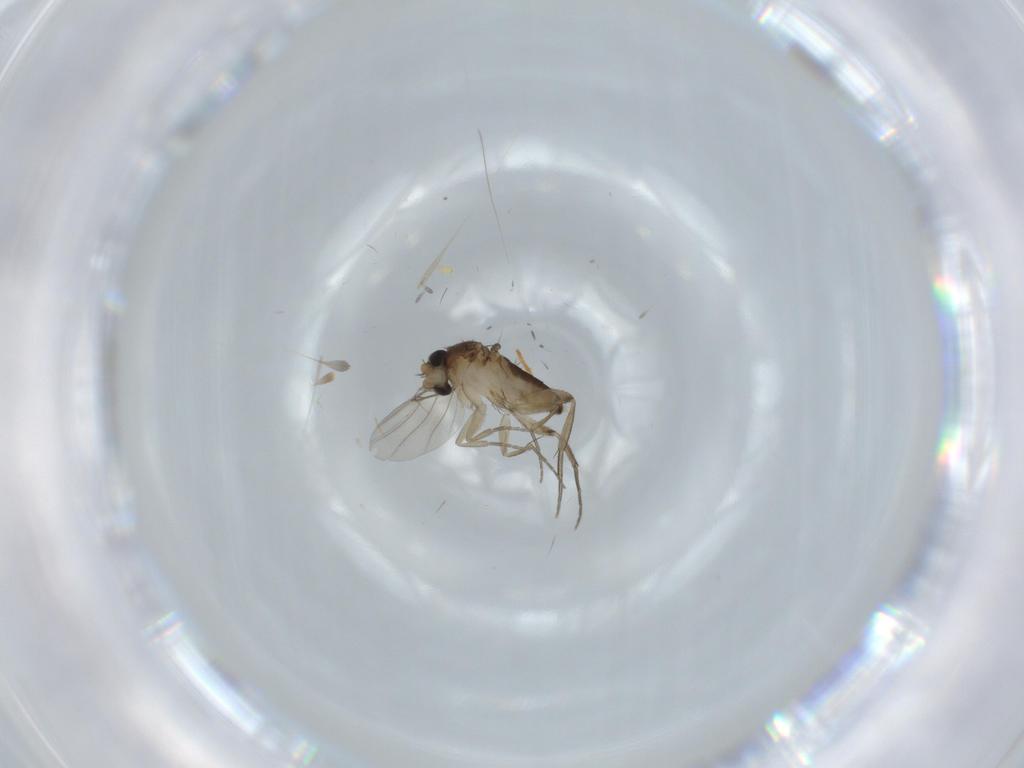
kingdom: Animalia
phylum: Arthropoda
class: Insecta
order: Diptera
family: Phoridae
